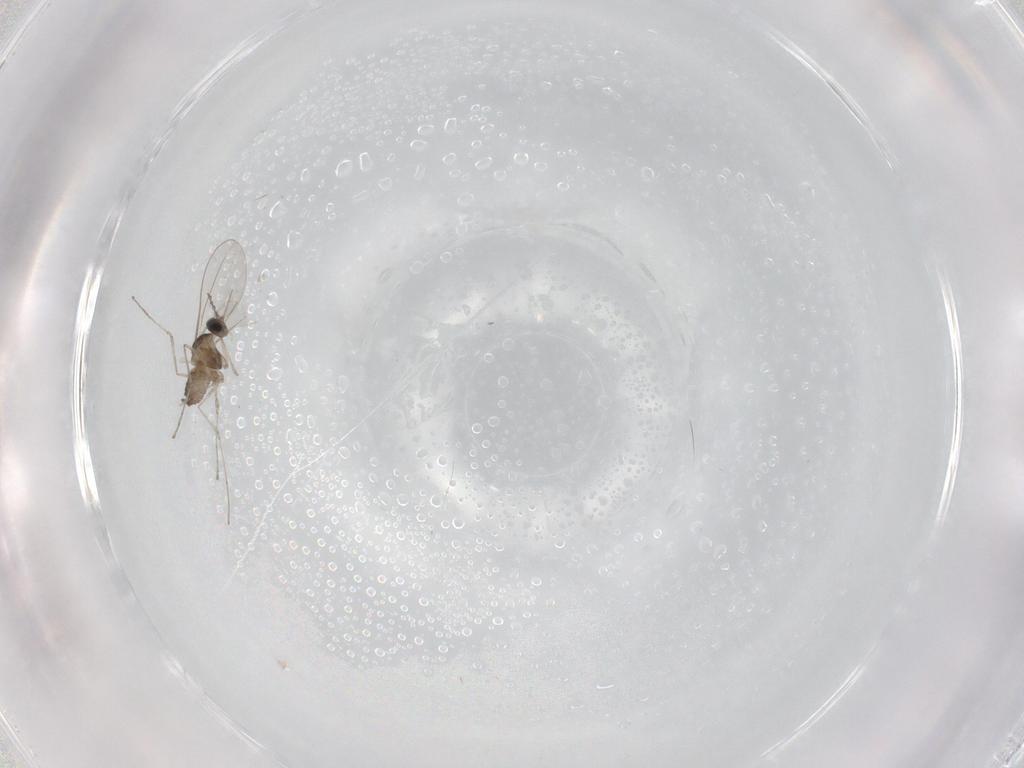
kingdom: Animalia
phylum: Arthropoda
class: Insecta
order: Diptera
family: Cecidomyiidae
